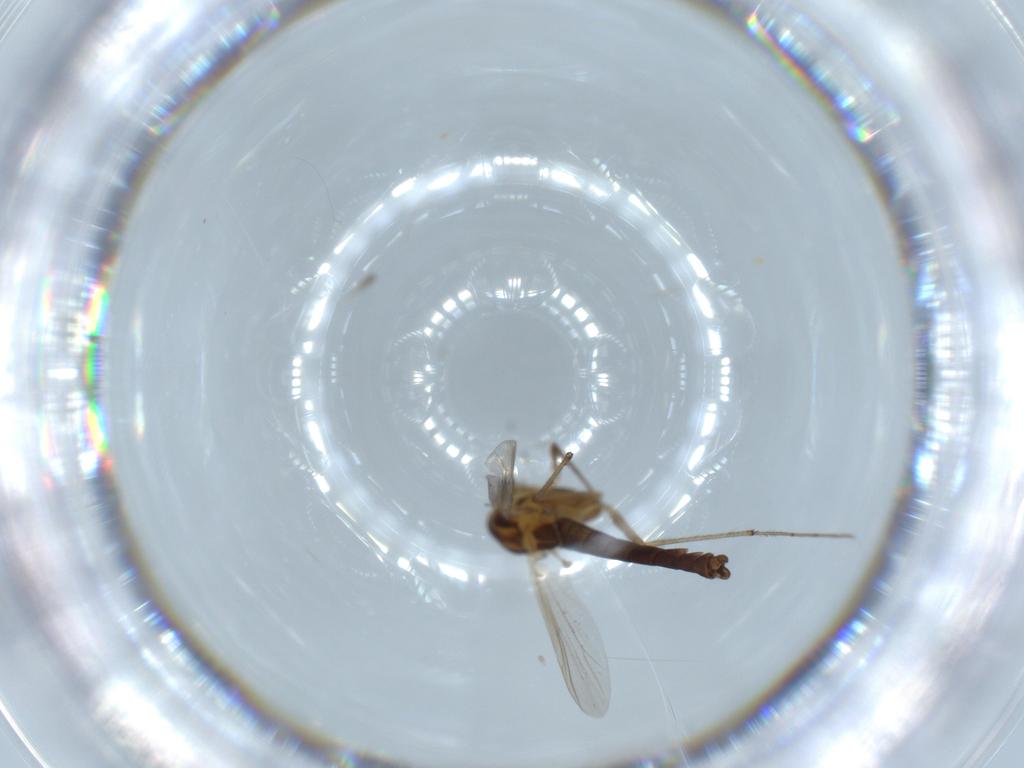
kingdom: Animalia
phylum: Arthropoda
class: Insecta
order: Diptera
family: Chironomidae
